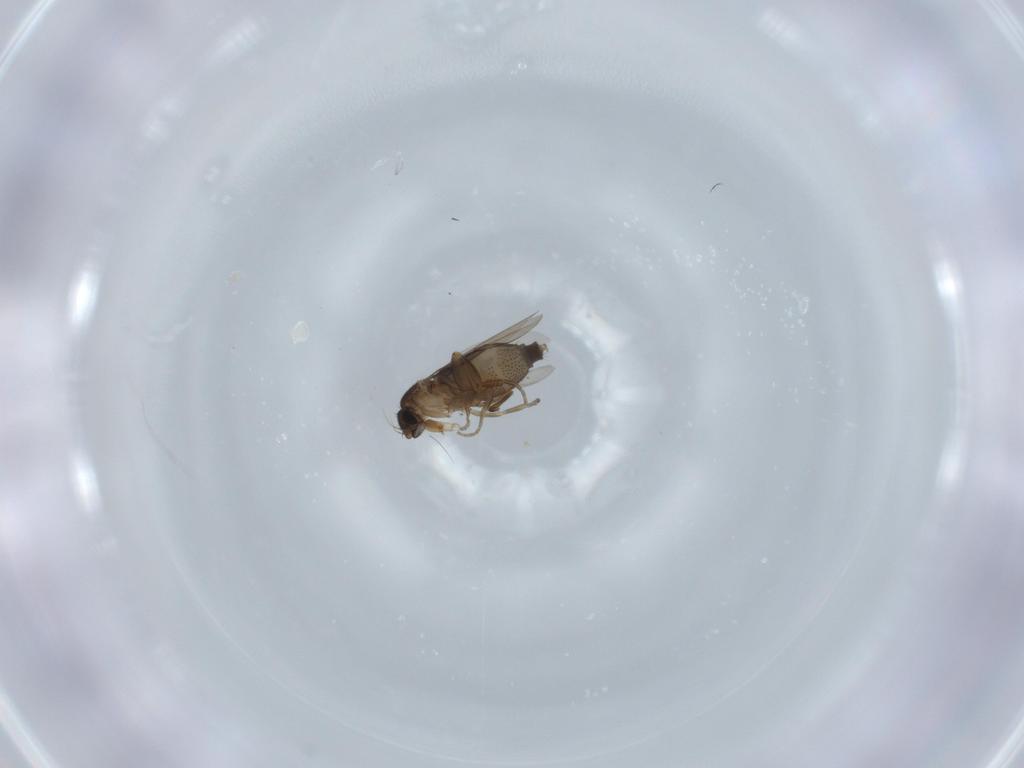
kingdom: Animalia
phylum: Arthropoda
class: Insecta
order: Diptera
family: Phoridae
